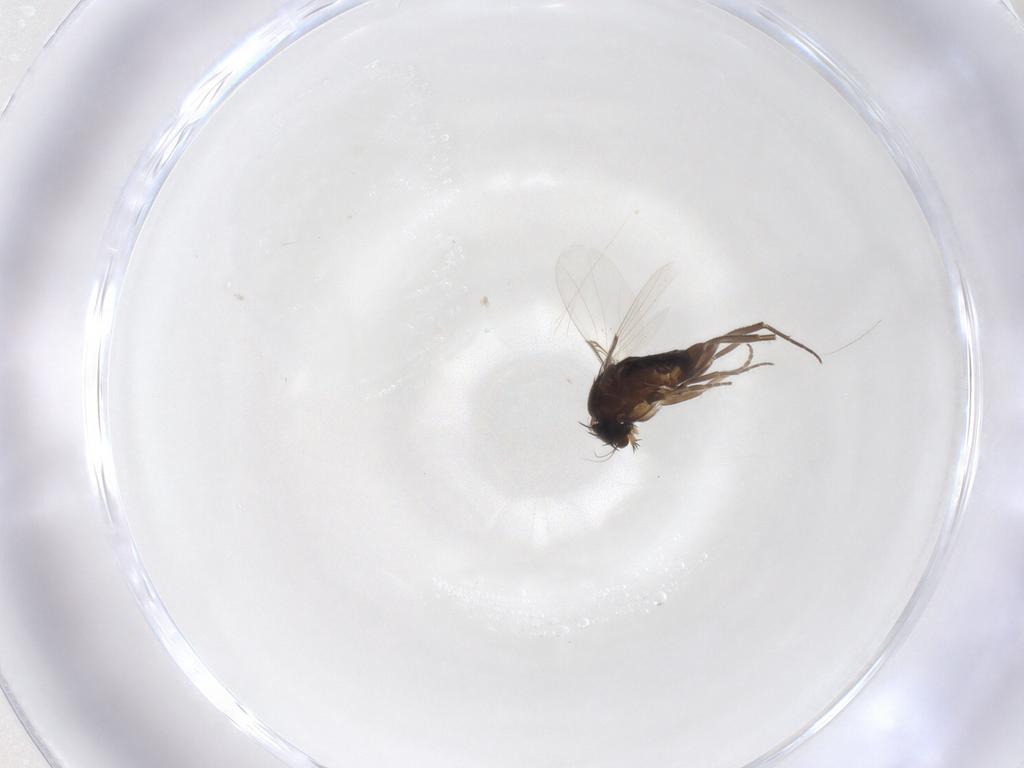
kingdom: Animalia
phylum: Arthropoda
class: Insecta
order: Diptera
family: Phoridae
